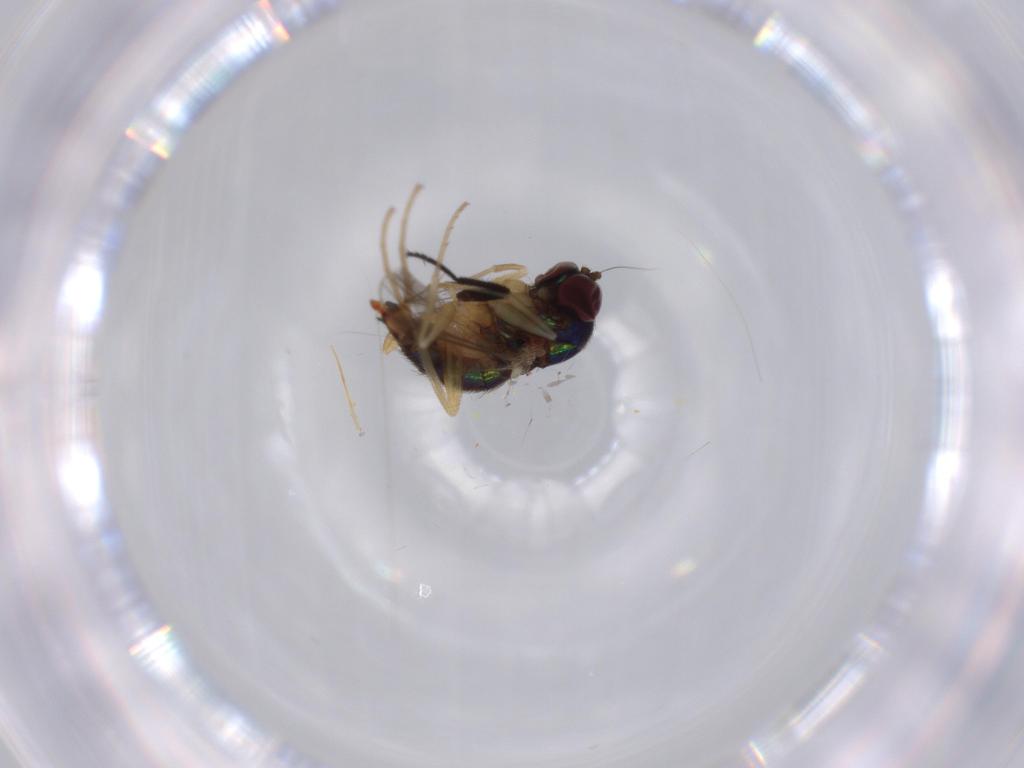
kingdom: Animalia
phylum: Arthropoda
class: Insecta
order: Diptera
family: Dolichopodidae
